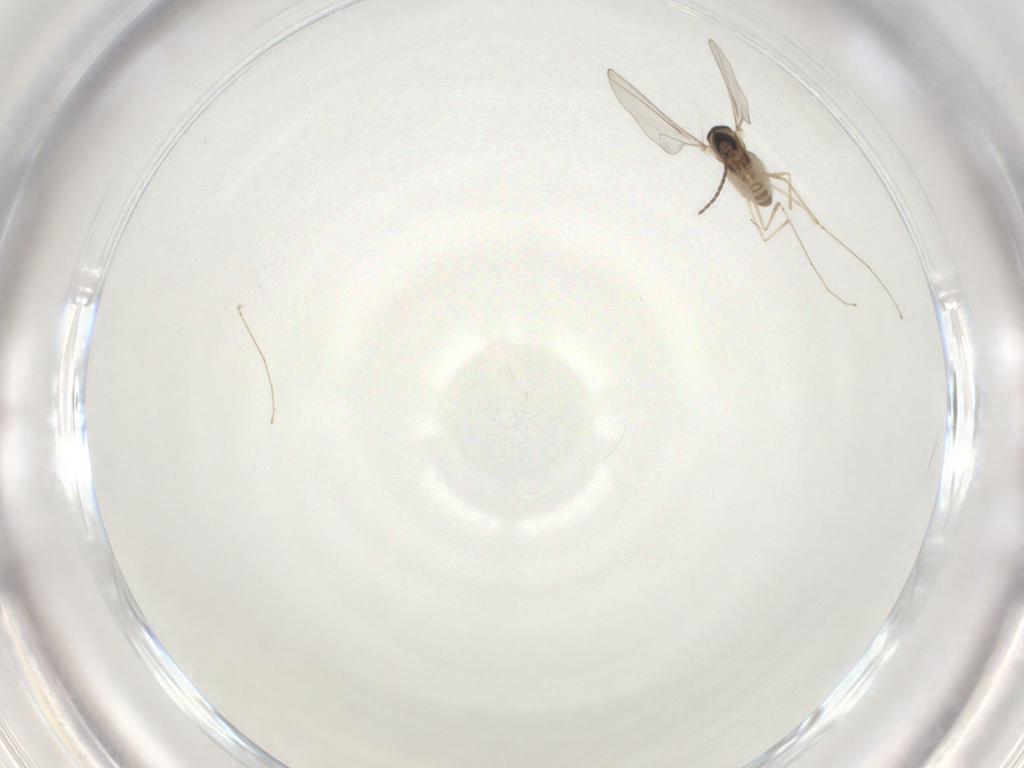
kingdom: Animalia
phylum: Arthropoda
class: Insecta
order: Diptera
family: Cecidomyiidae
